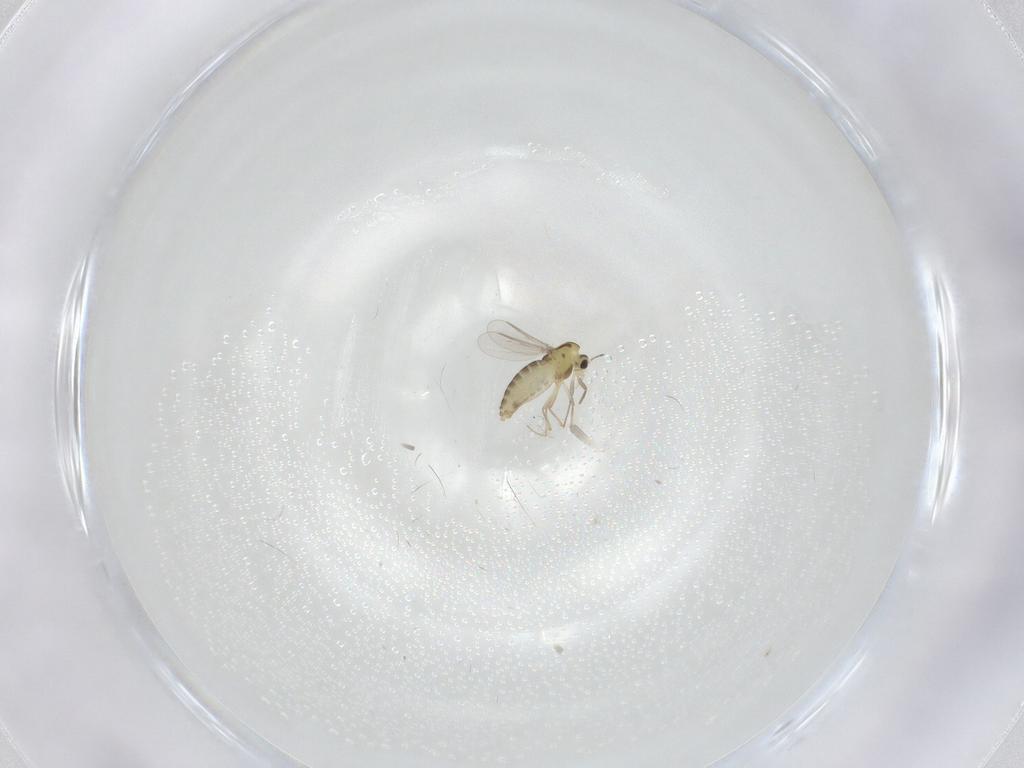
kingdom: Animalia
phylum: Arthropoda
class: Insecta
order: Diptera
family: Chironomidae
